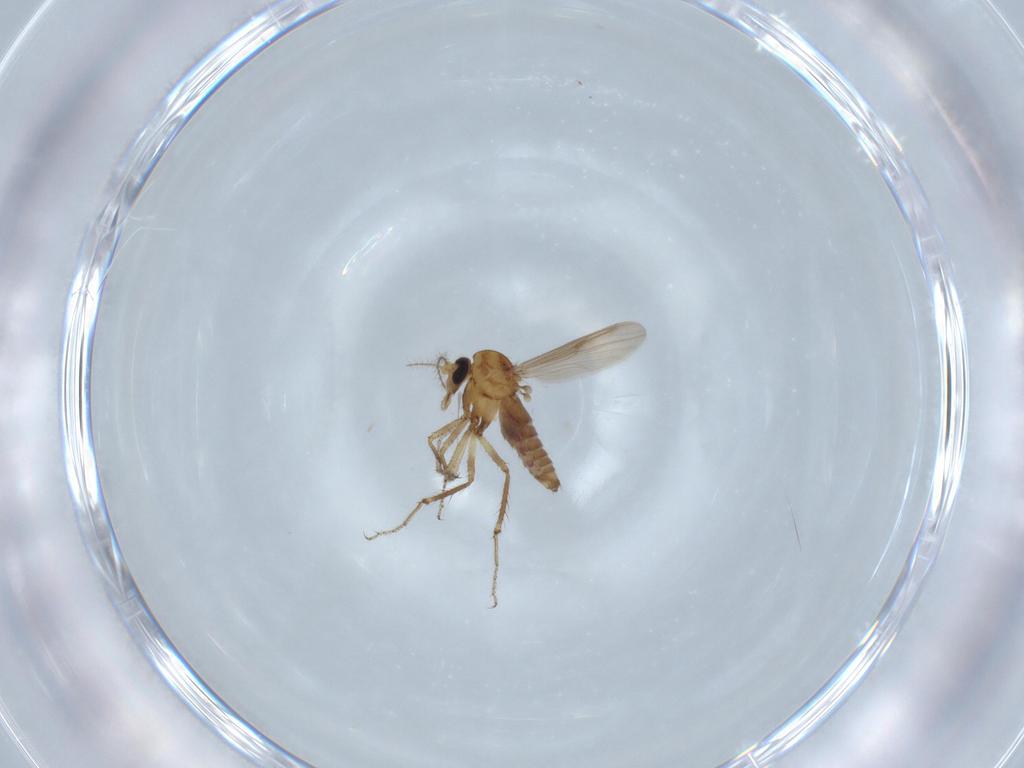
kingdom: Animalia
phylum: Arthropoda
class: Insecta
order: Diptera
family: Ceratopogonidae
